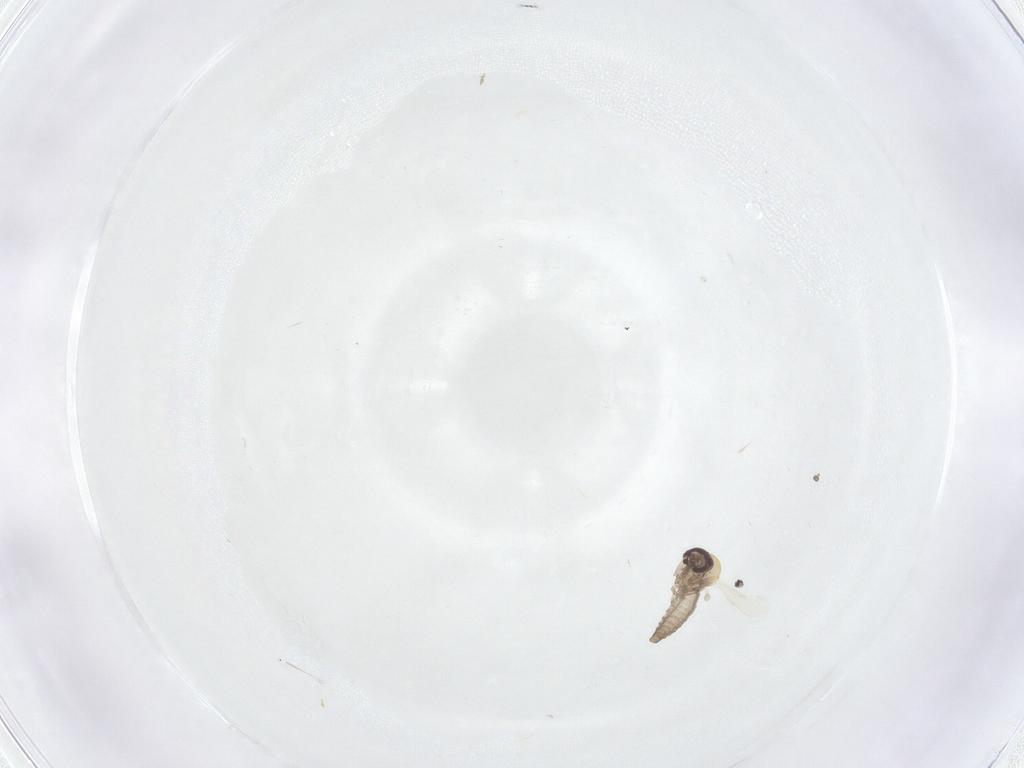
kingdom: Animalia
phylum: Arthropoda
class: Insecta
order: Diptera
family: Ceratopogonidae
